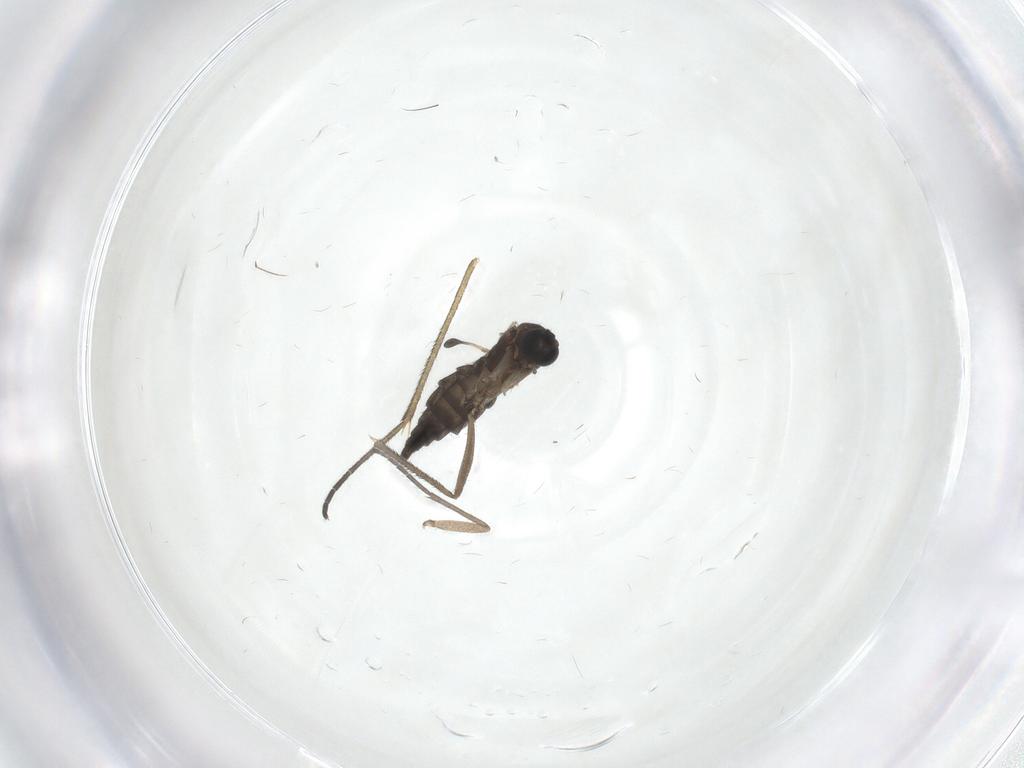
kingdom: Animalia
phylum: Arthropoda
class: Insecta
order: Diptera
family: Sciaridae
